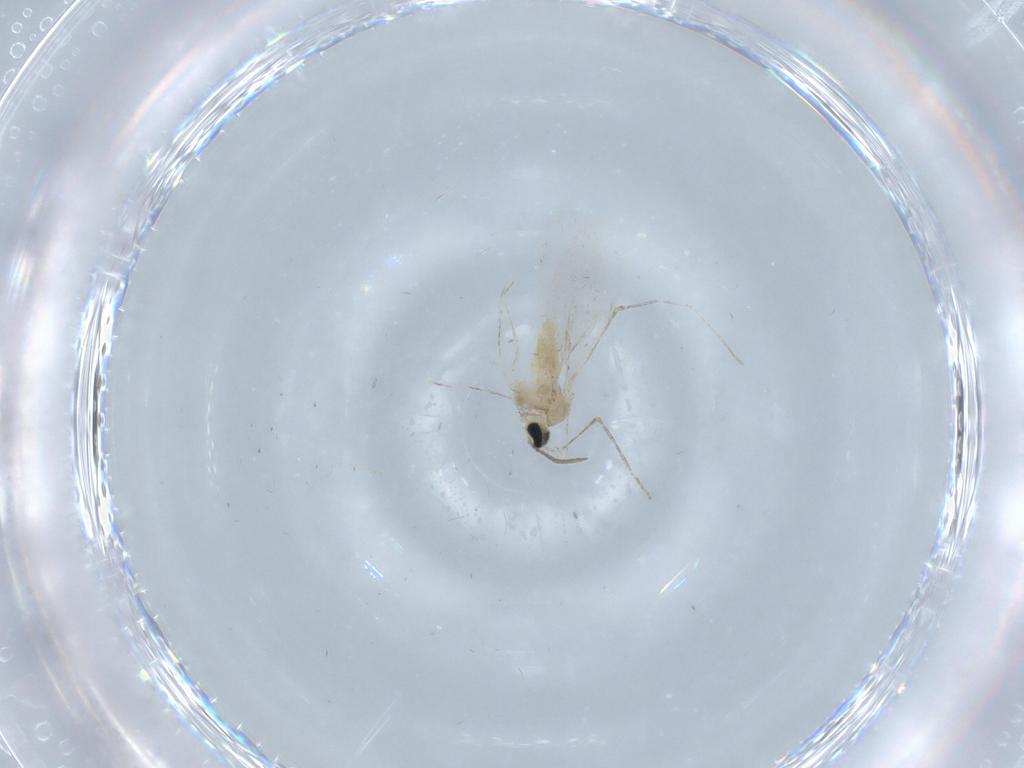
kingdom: Animalia
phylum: Arthropoda
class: Insecta
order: Diptera
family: Cecidomyiidae
